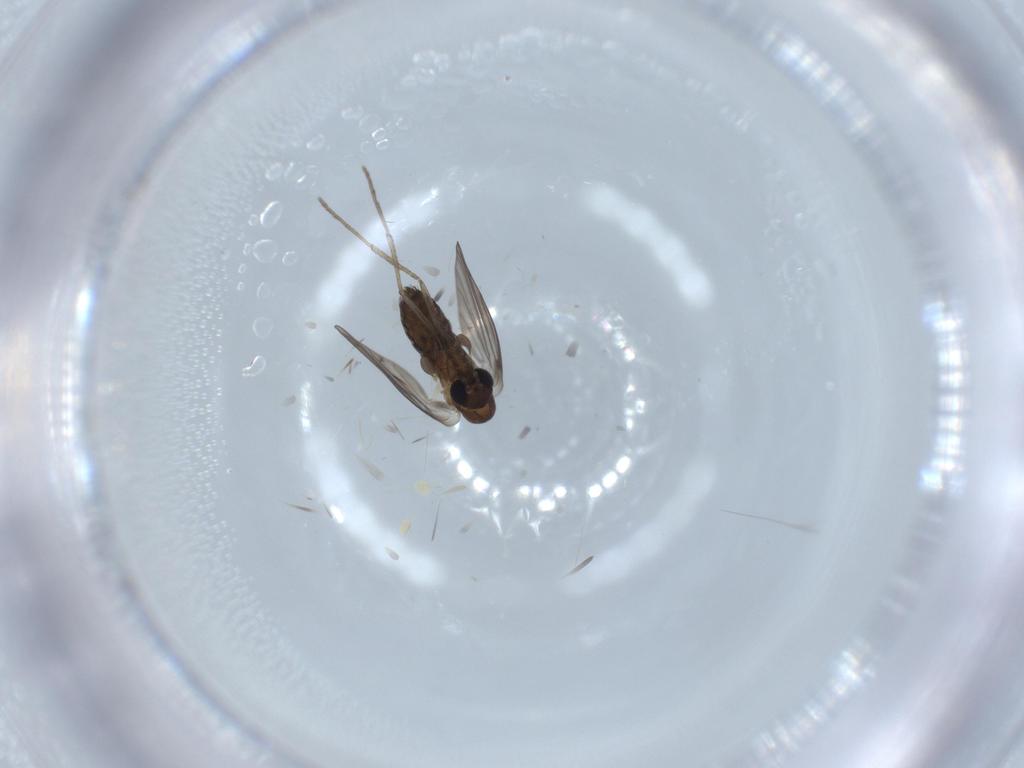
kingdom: Animalia
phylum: Arthropoda
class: Insecta
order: Diptera
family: Psychodidae
